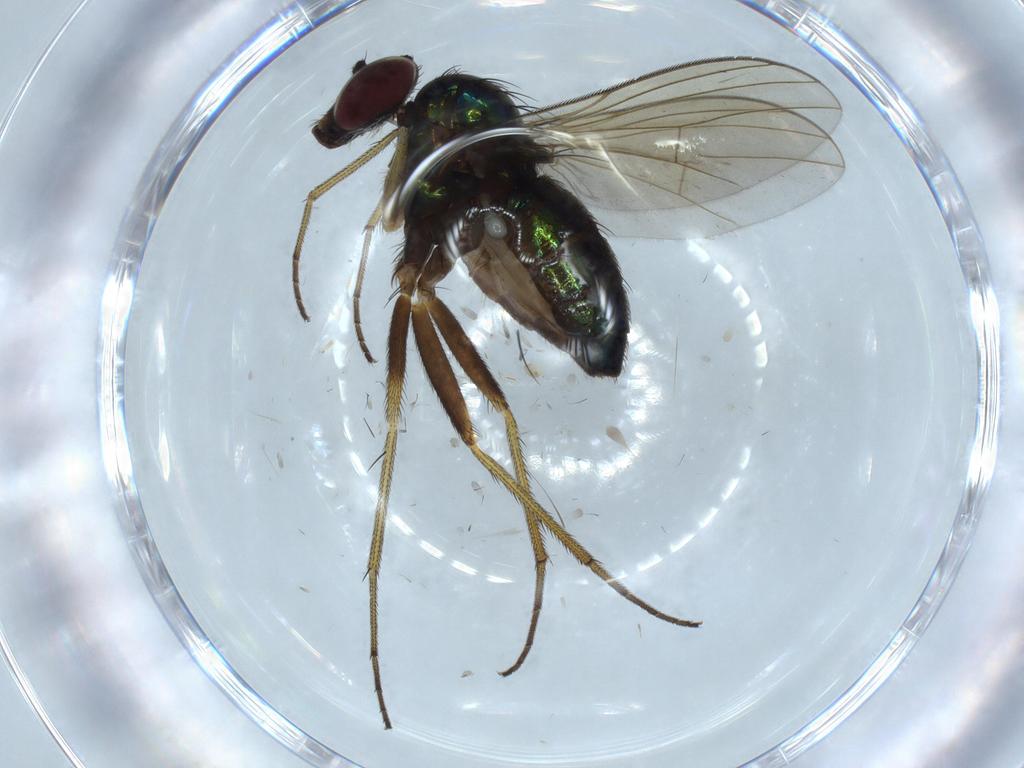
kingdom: Animalia
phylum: Arthropoda
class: Insecta
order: Diptera
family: Dolichopodidae
